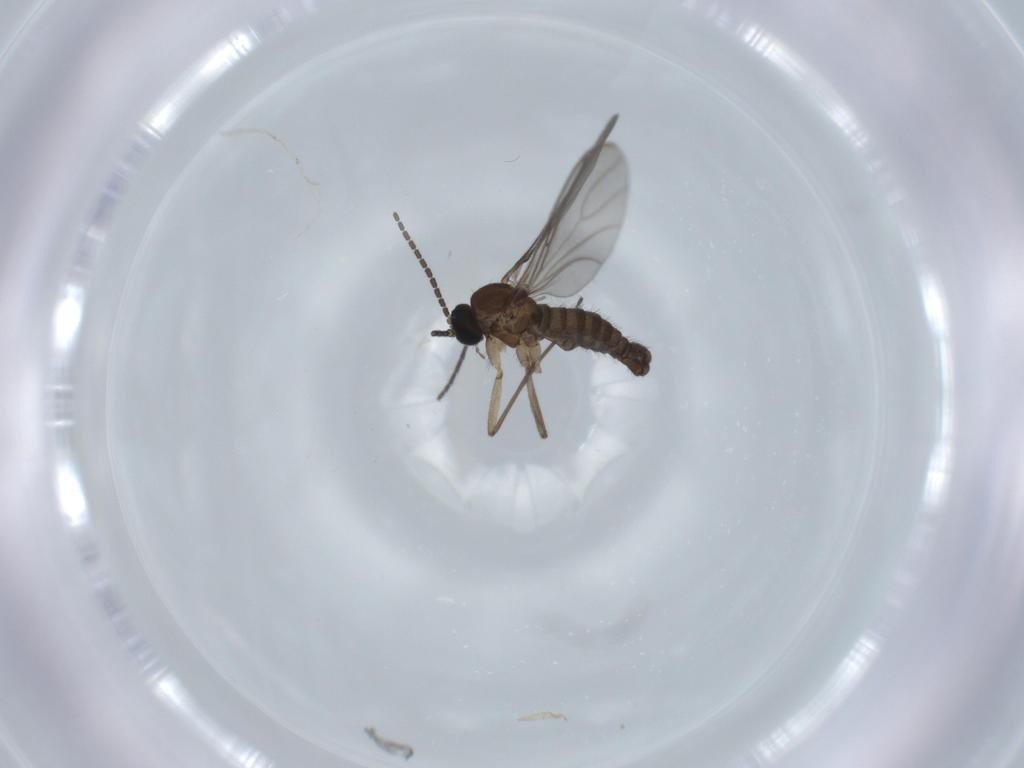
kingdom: Animalia
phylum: Arthropoda
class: Insecta
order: Diptera
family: Sciaridae
